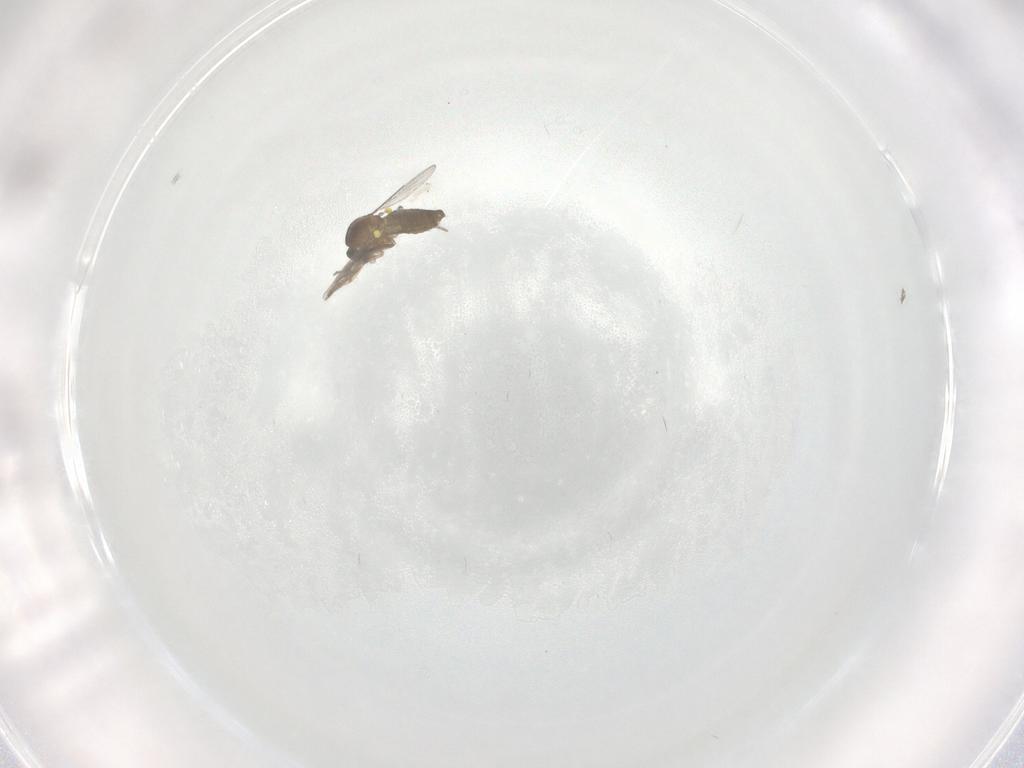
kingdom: Animalia
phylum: Arthropoda
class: Insecta
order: Diptera
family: Ceratopogonidae
